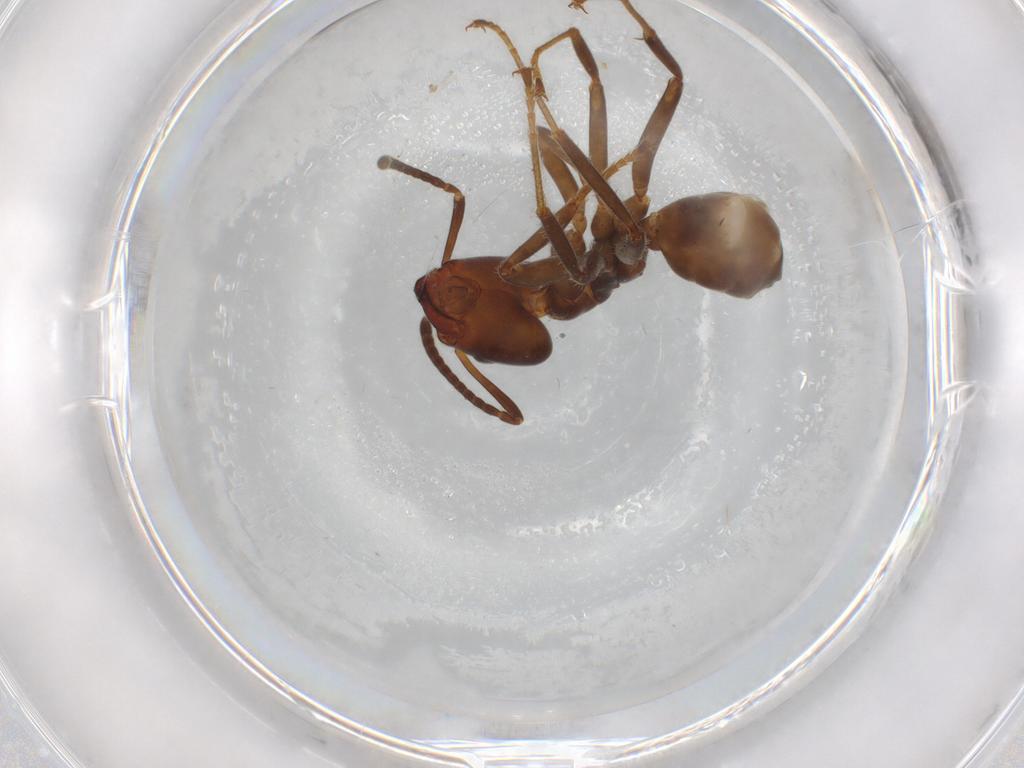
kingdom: Animalia
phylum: Arthropoda
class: Insecta
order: Hymenoptera
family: Formicidae
